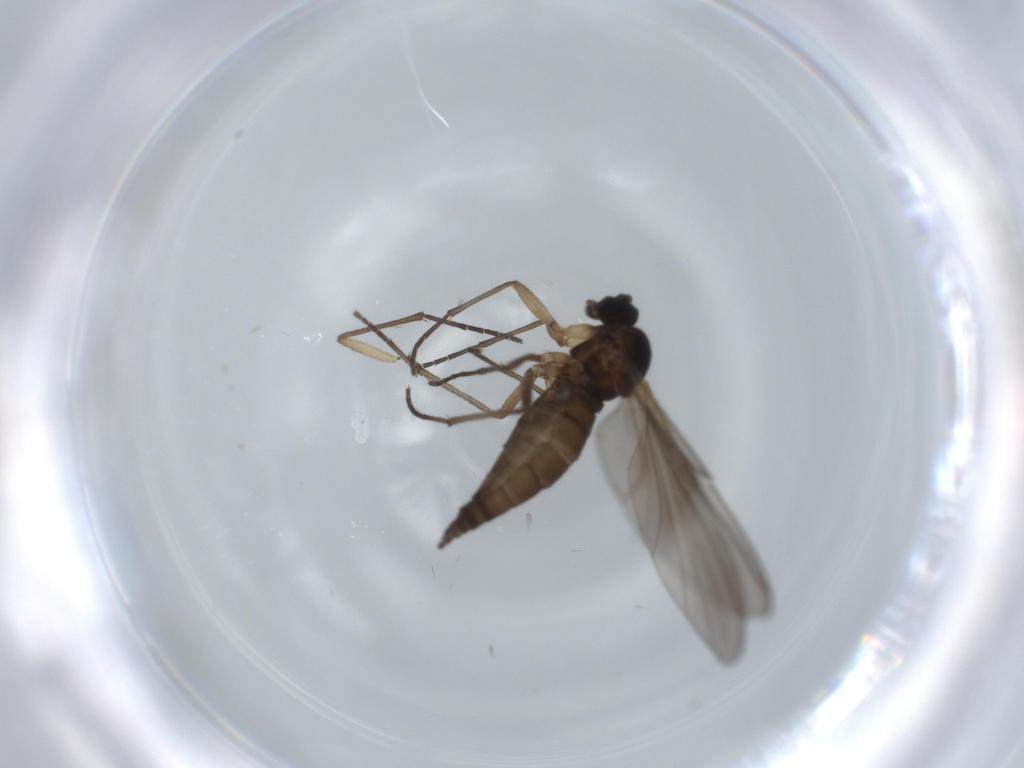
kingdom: Animalia
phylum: Arthropoda
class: Insecta
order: Diptera
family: Sciaridae
